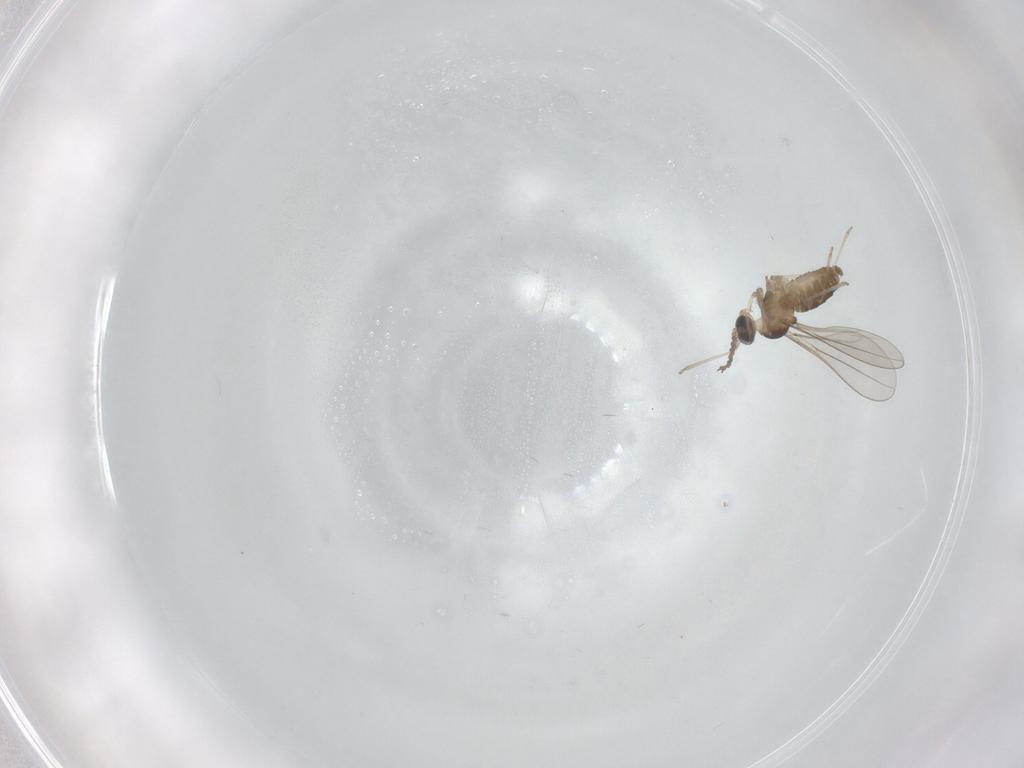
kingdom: Animalia
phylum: Arthropoda
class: Insecta
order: Diptera
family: Cecidomyiidae
